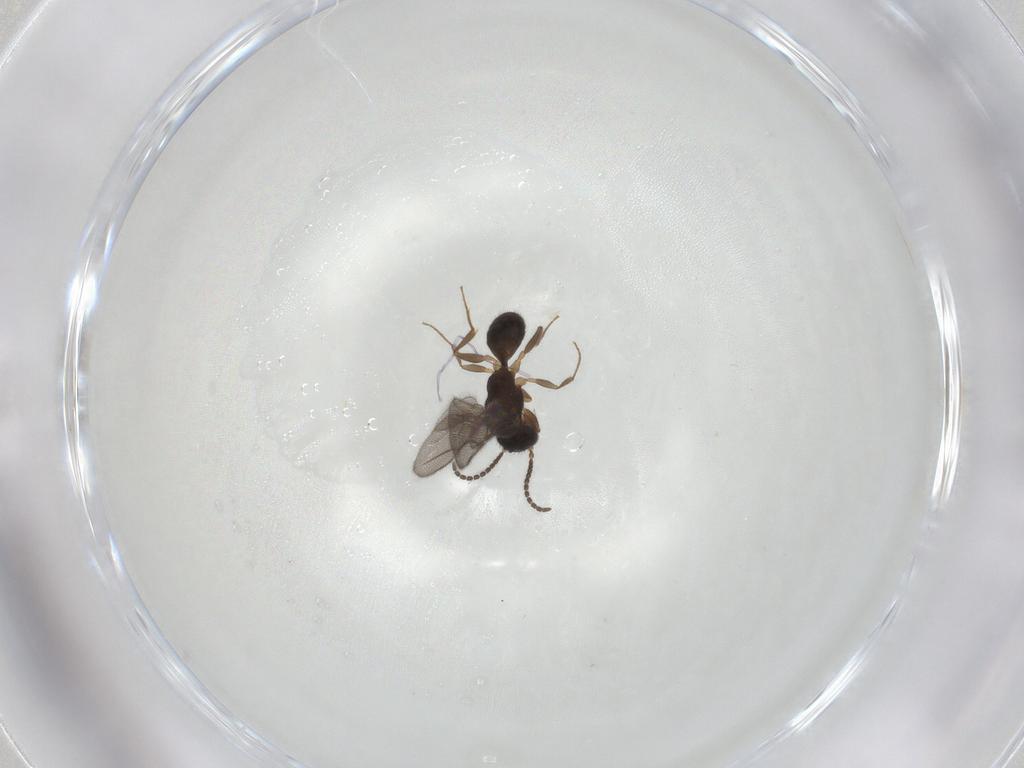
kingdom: Animalia
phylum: Arthropoda
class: Insecta
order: Hymenoptera
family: Bethylidae
